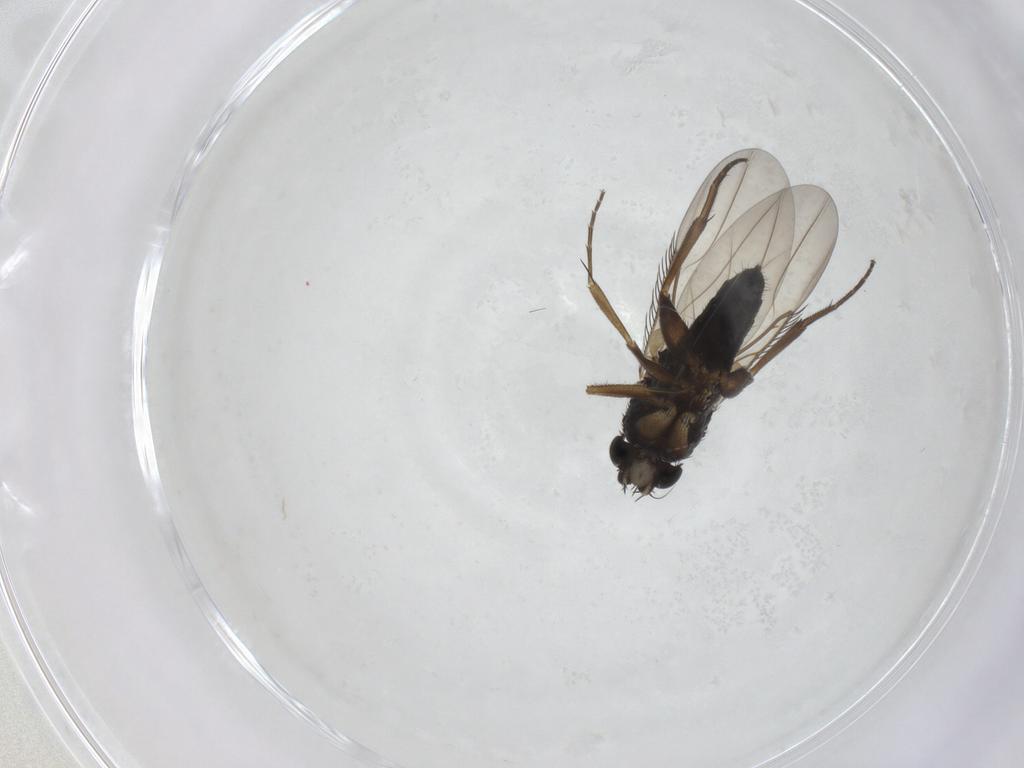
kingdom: Animalia
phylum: Arthropoda
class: Insecta
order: Diptera
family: Phoridae
